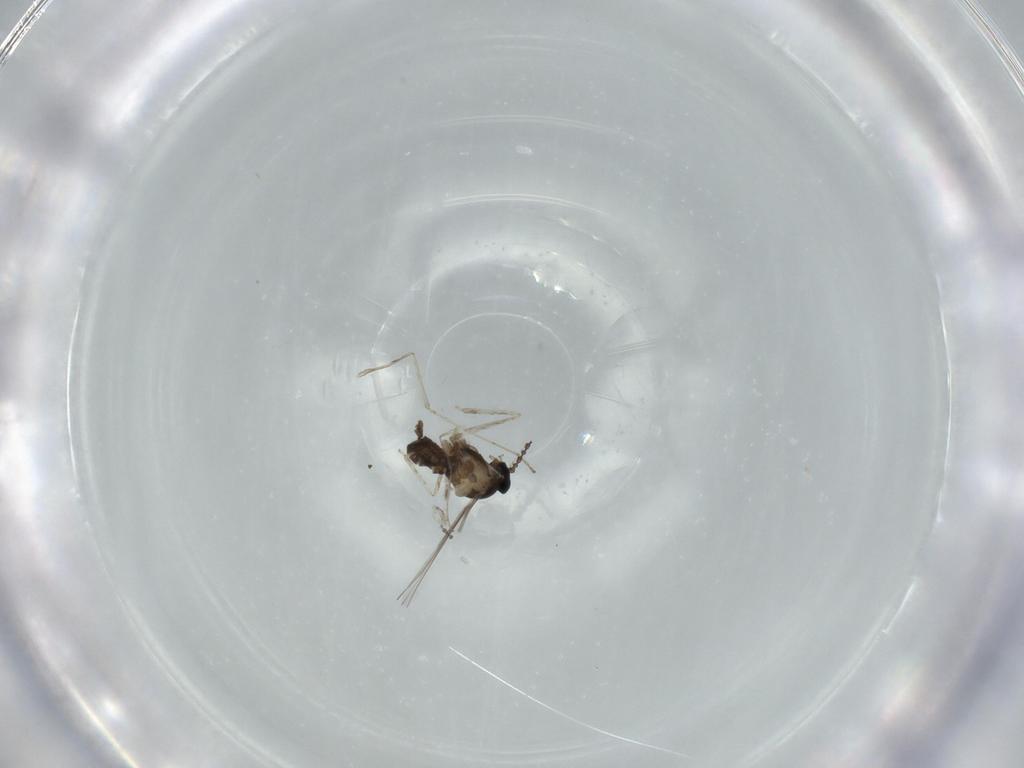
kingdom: Animalia
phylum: Arthropoda
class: Insecta
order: Diptera
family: Cecidomyiidae
